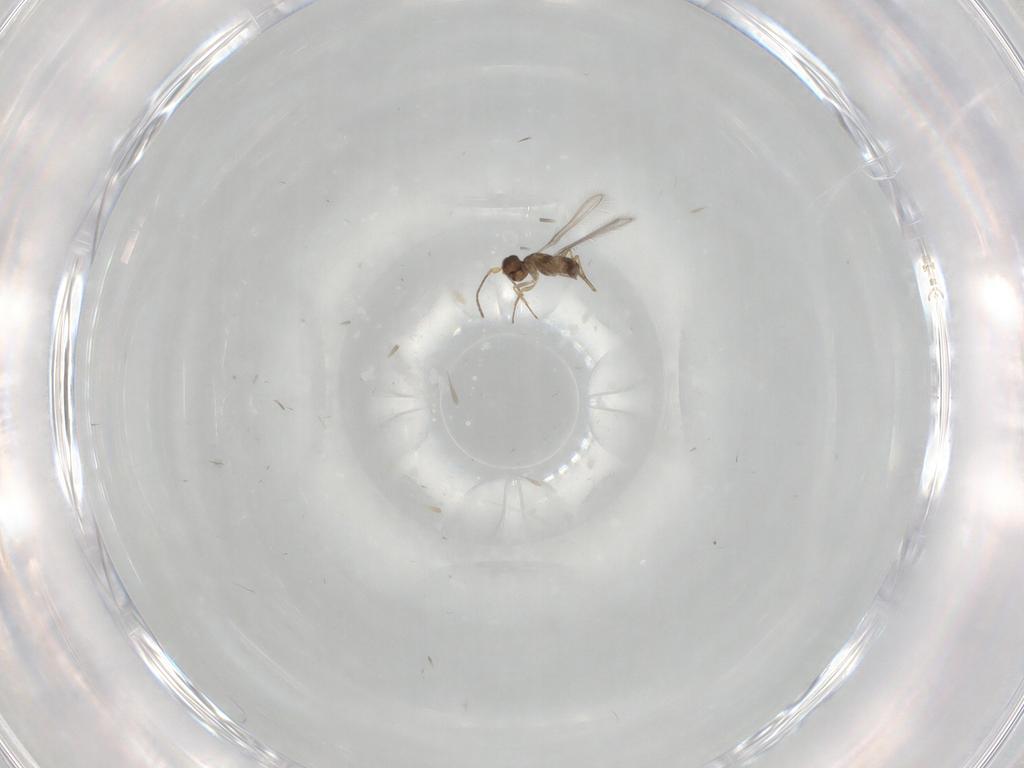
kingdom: Animalia
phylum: Arthropoda
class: Insecta
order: Hymenoptera
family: Mymaridae
